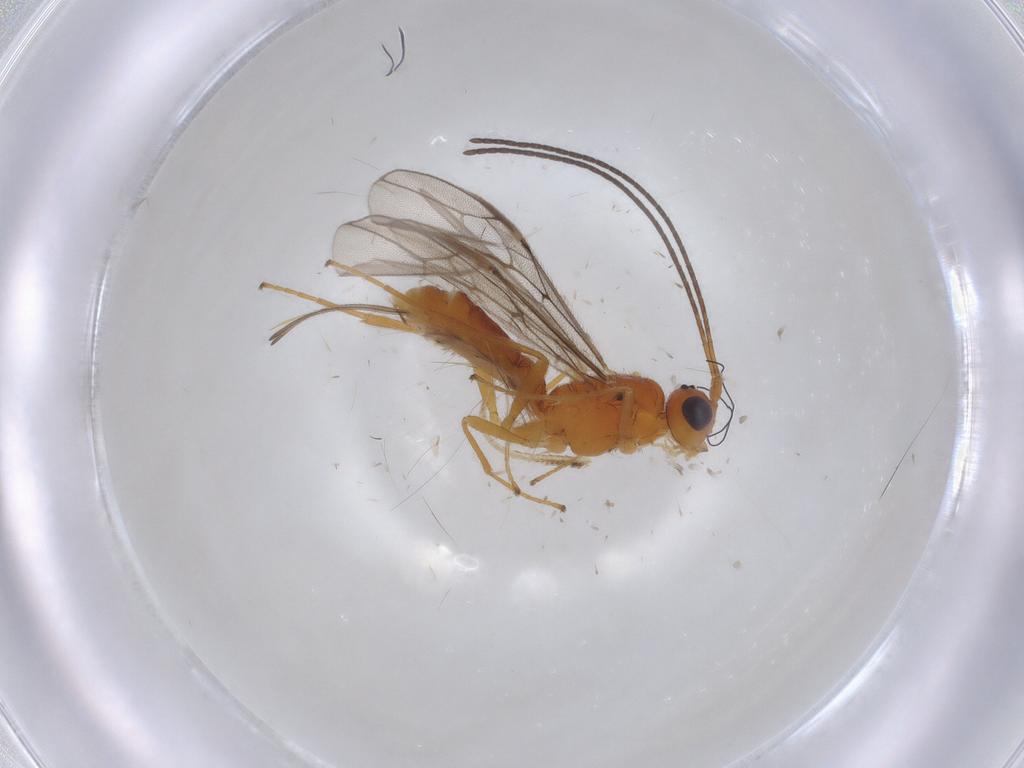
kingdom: Animalia
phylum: Arthropoda
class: Insecta
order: Hymenoptera
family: Braconidae
